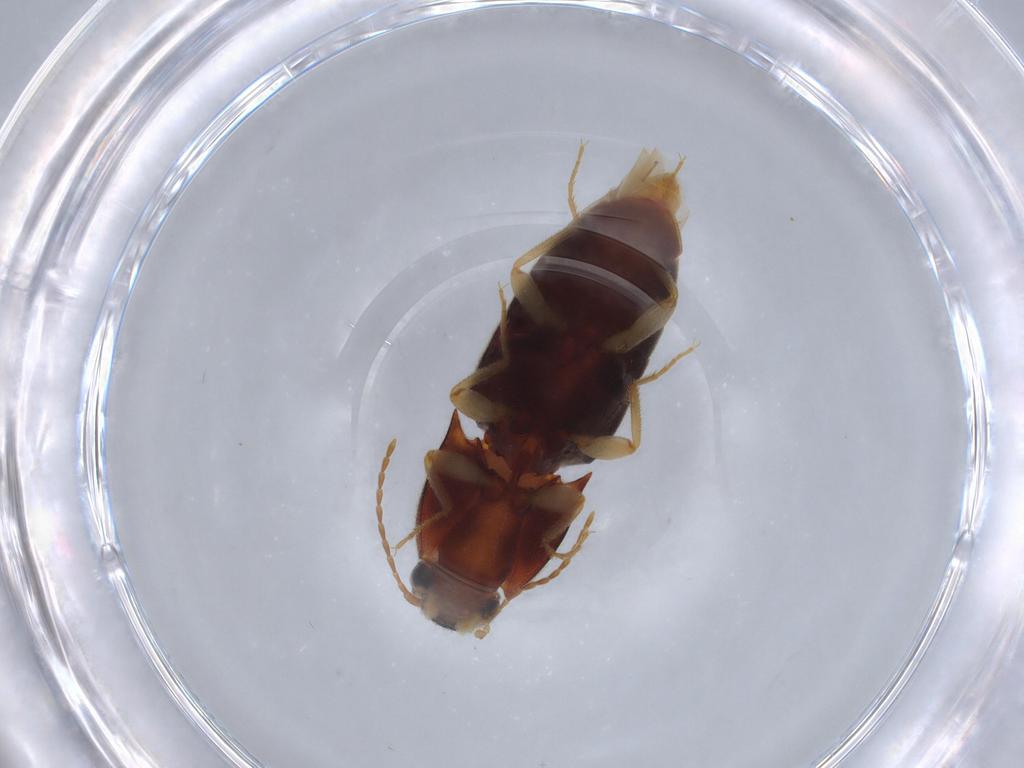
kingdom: Animalia
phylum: Arthropoda
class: Insecta
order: Coleoptera
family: Elateridae
